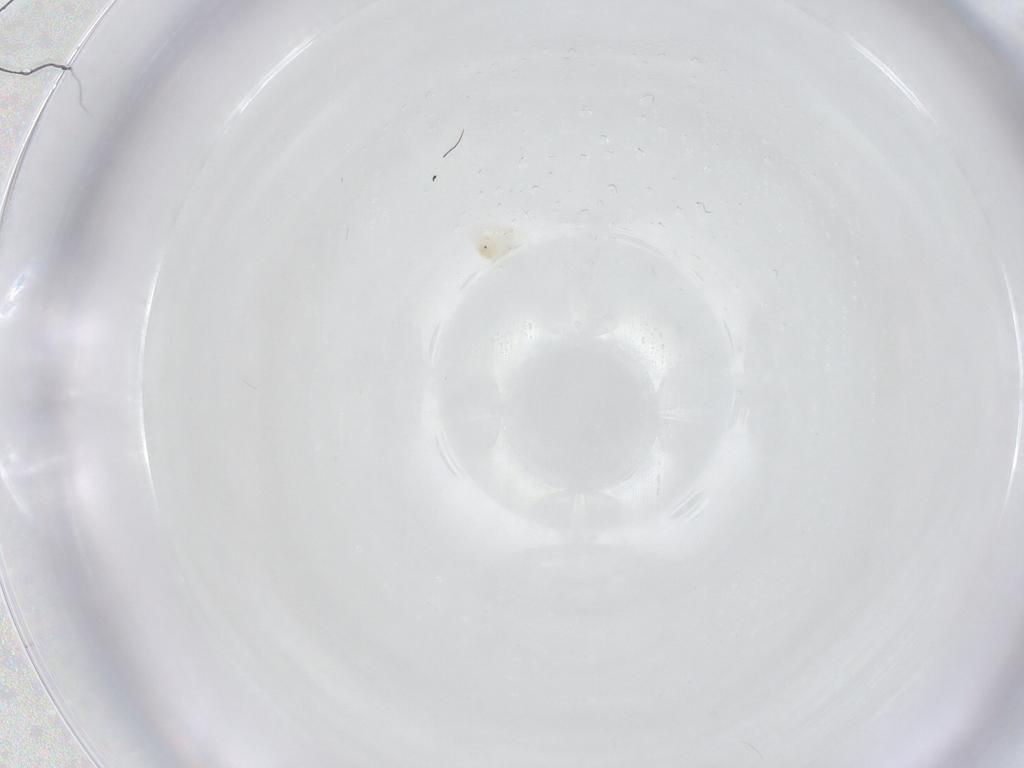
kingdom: Animalia
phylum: Arthropoda
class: Arachnida
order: Trombidiformes
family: Anystidae
